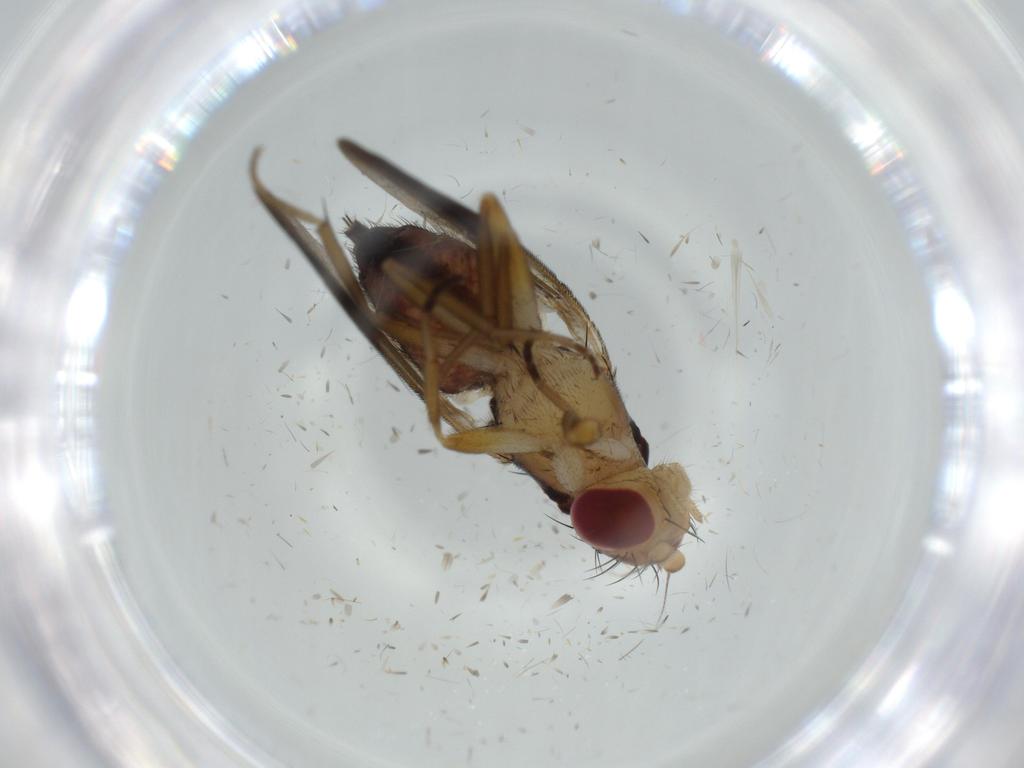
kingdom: Animalia
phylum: Arthropoda
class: Insecta
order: Diptera
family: Clusiidae
